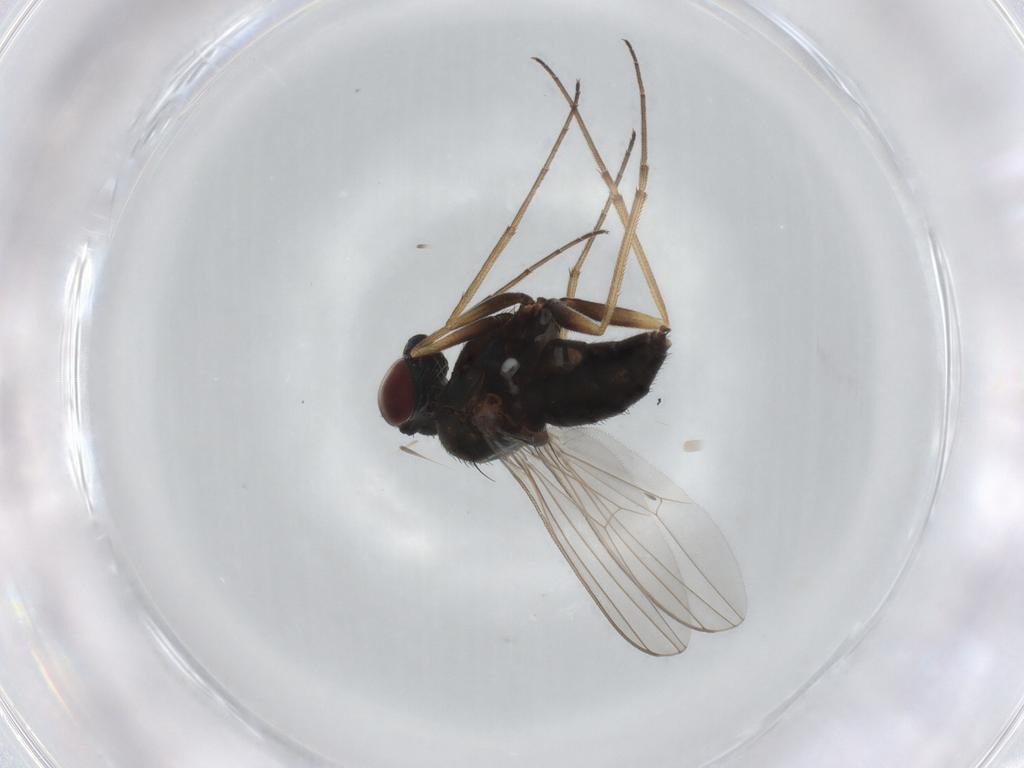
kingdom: Animalia
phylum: Arthropoda
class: Insecta
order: Diptera
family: Dolichopodidae
